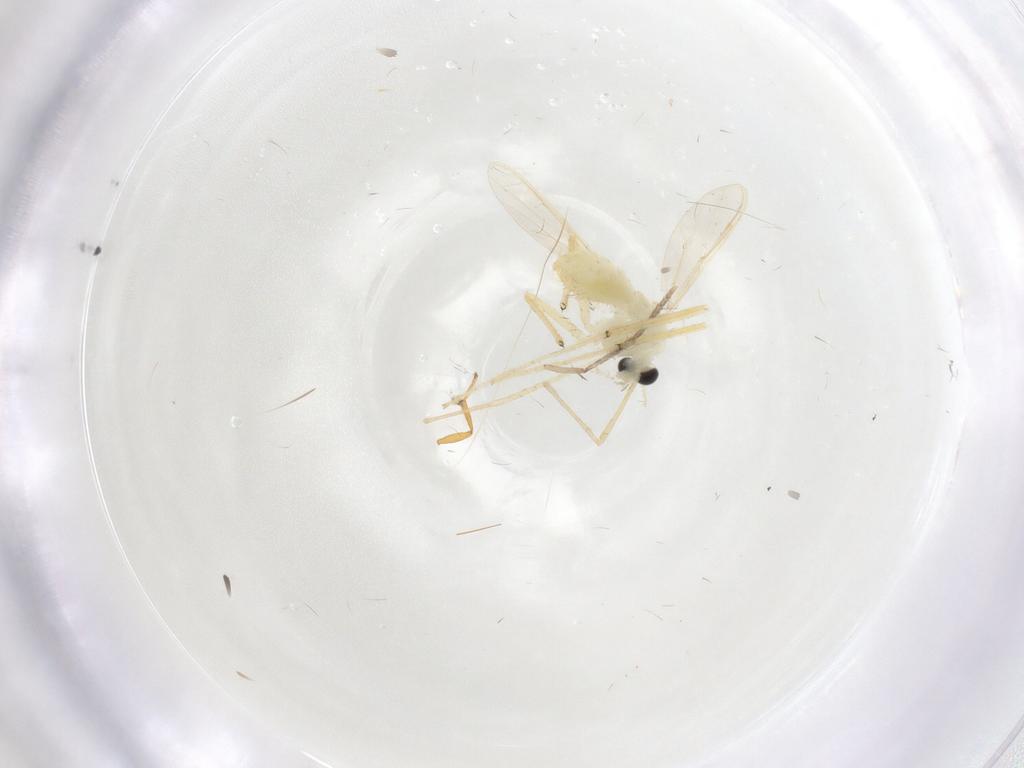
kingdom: Animalia
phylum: Arthropoda
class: Insecta
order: Diptera
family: Chironomidae
